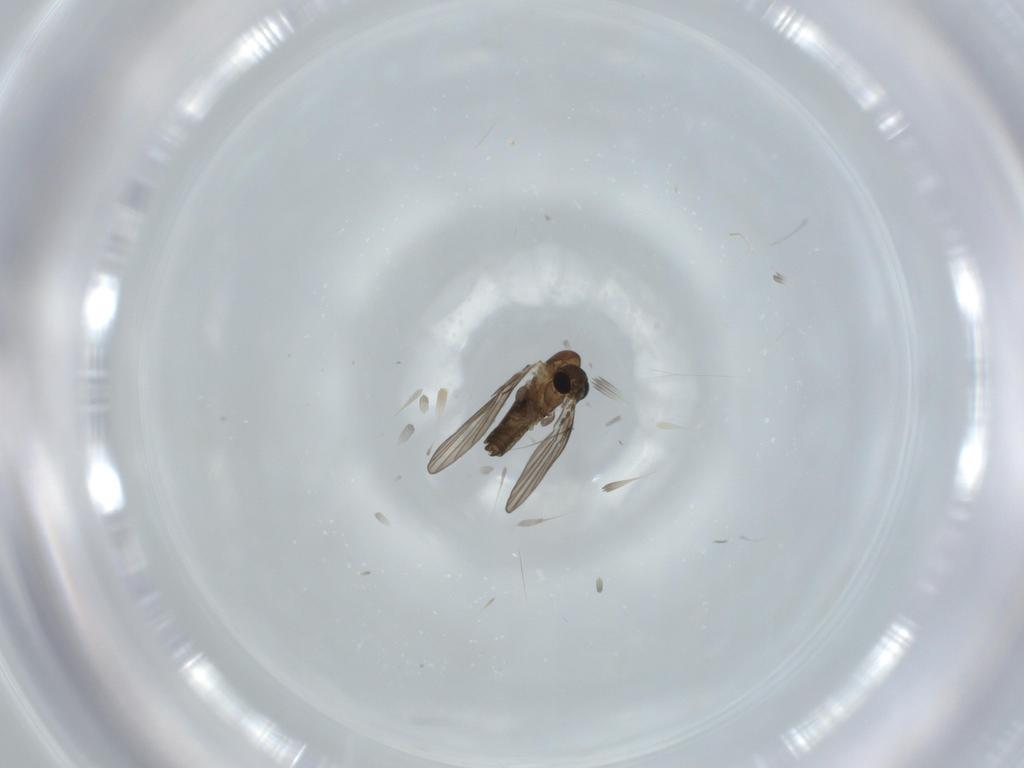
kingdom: Animalia
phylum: Arthropoda
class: Insecta
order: Diptera
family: Psychodidae
